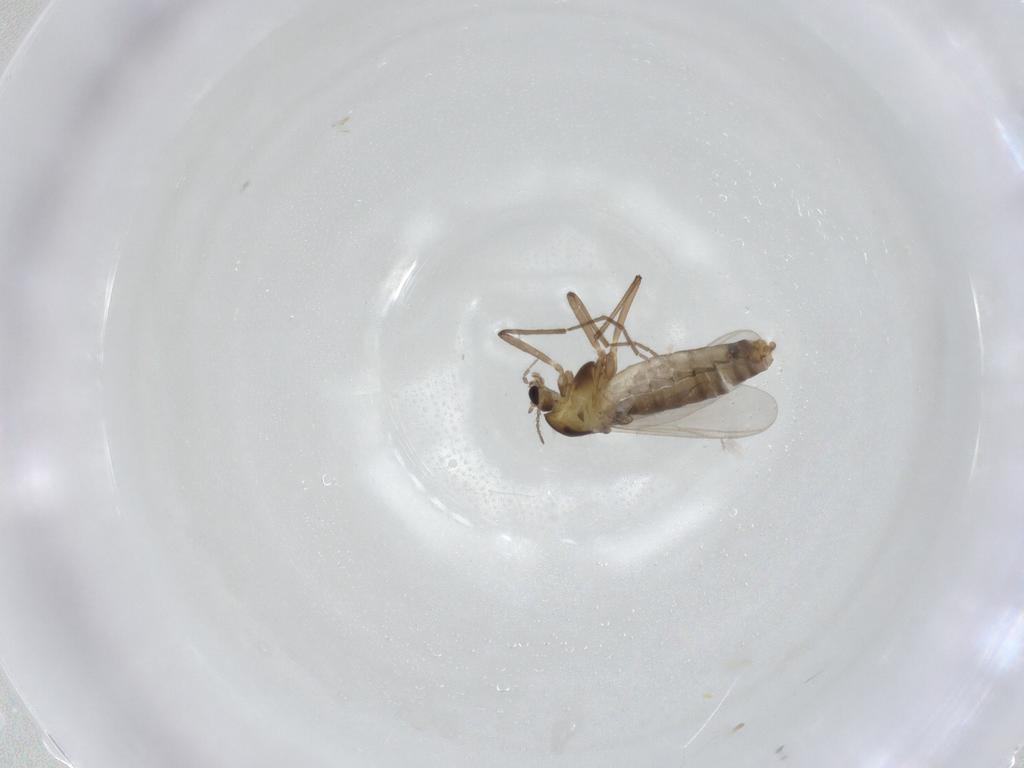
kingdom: Animalia
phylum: Arthropoda
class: Insecta
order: Diptera
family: Chironomidae
